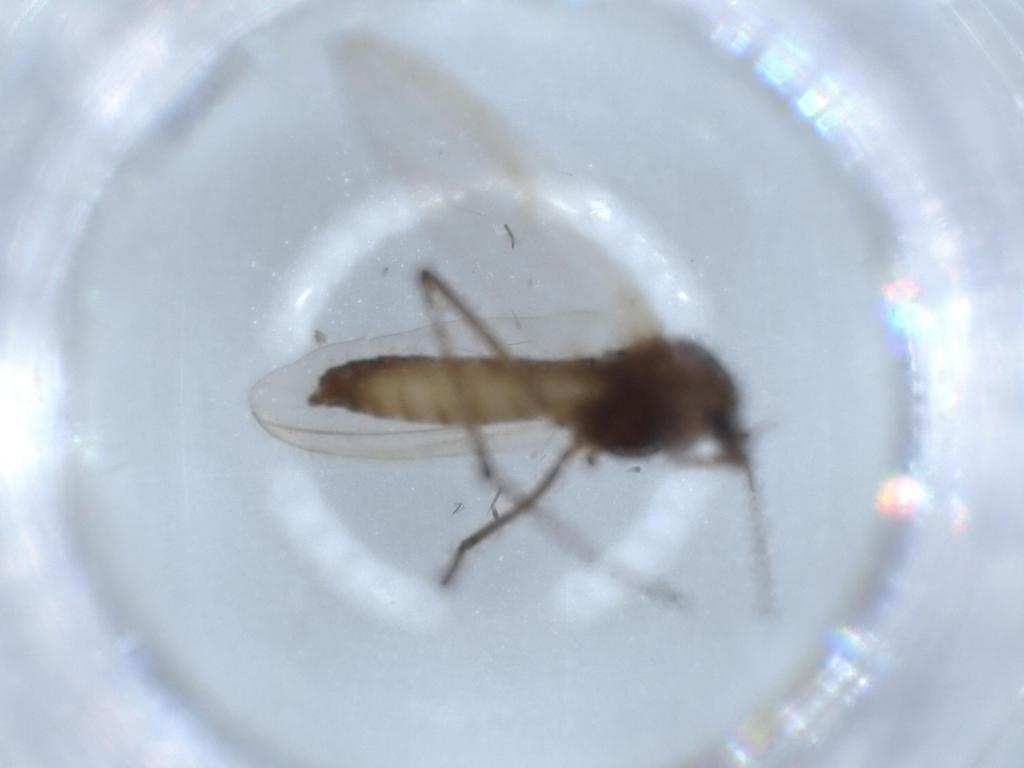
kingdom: Animalia
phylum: Arthropoda
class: Insecta
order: Diptera
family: Chironomidae
